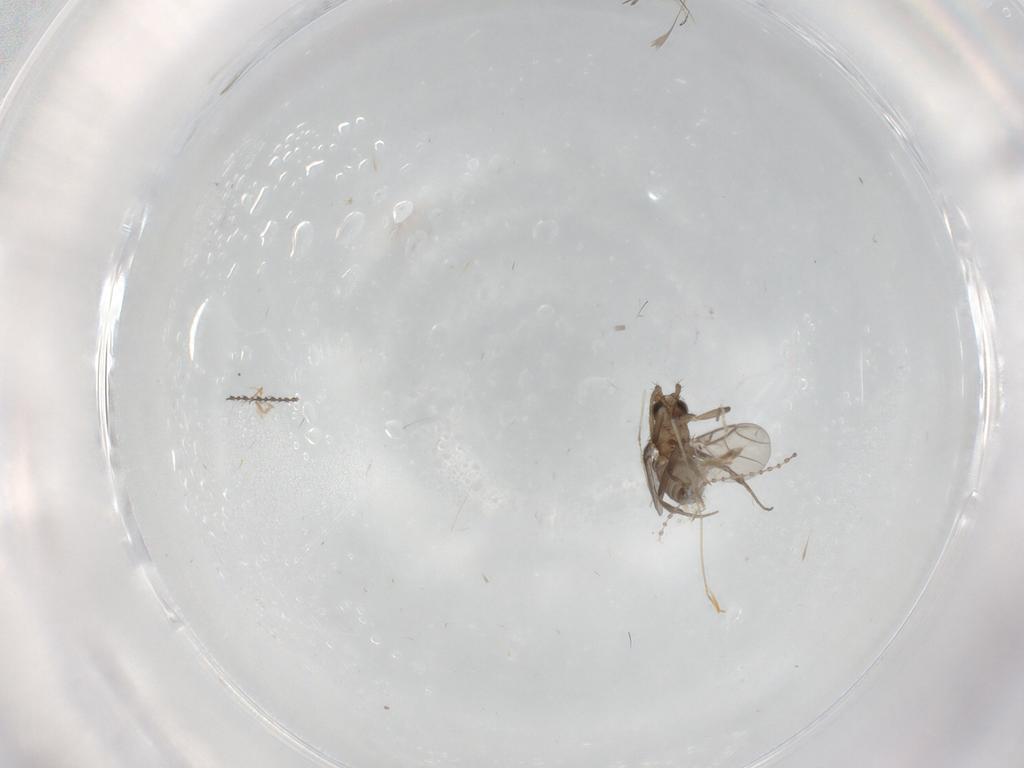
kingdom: Animalia
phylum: Arthropoda
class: Insecta
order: Diptera
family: Phoridae
